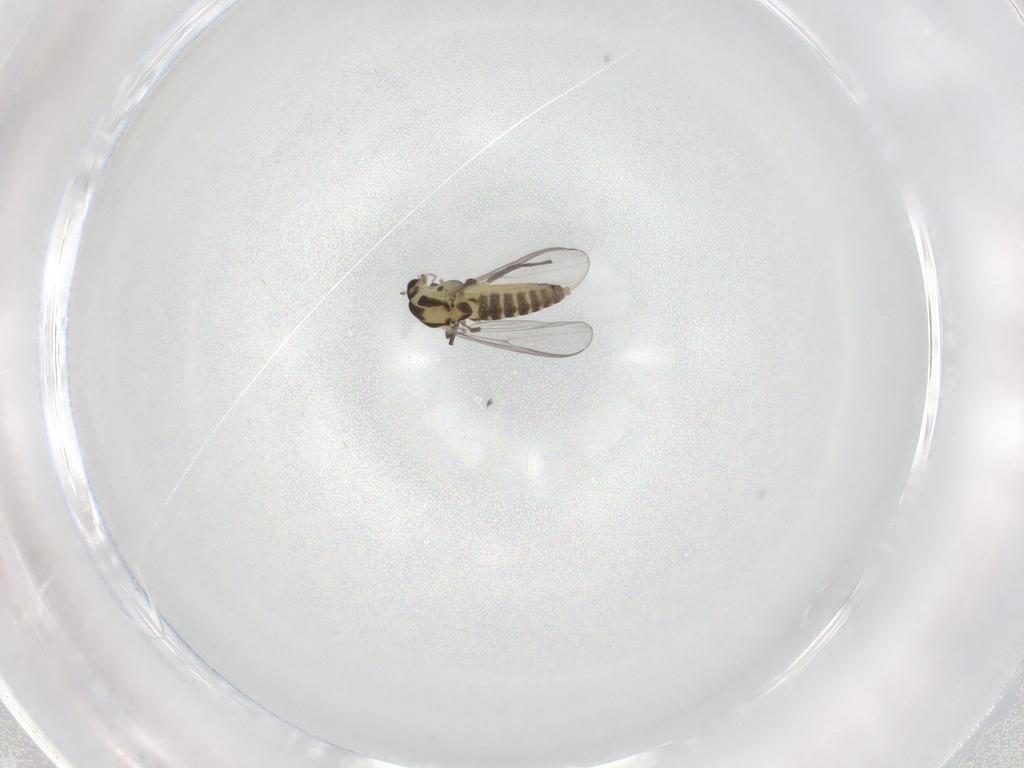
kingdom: Animalia
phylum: Arthropoda
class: Insecta
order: Diptera
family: Chironomidae
